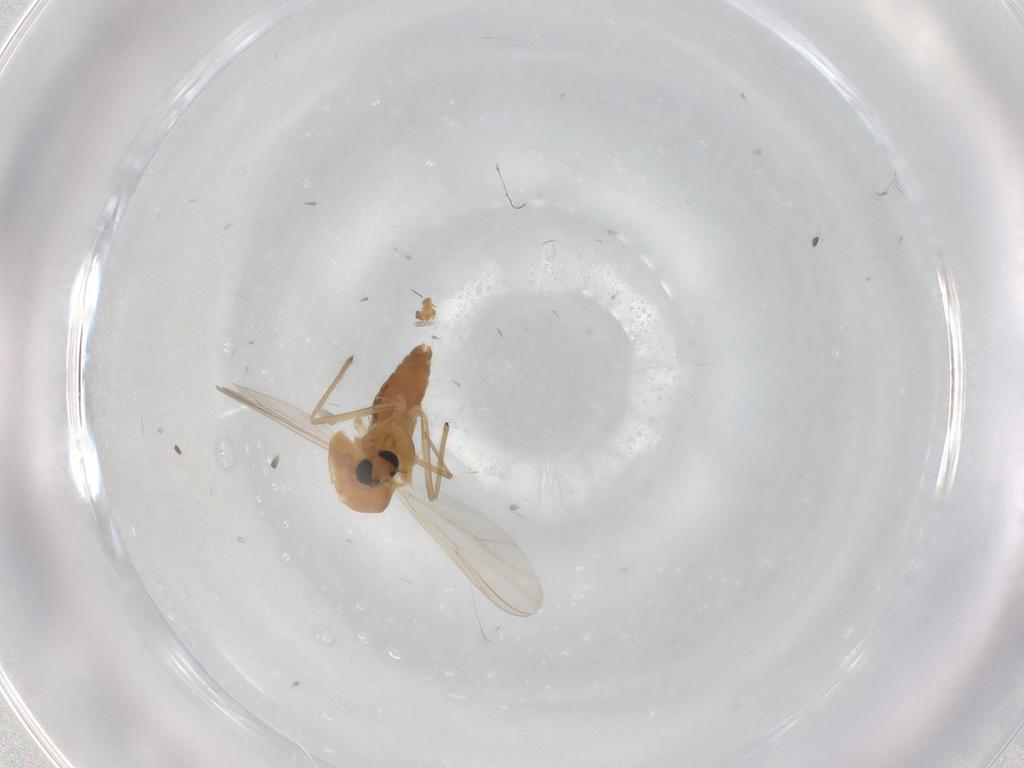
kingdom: Animalia
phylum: Arthropoda
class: Insecta
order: Diptera
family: Chironomidae
